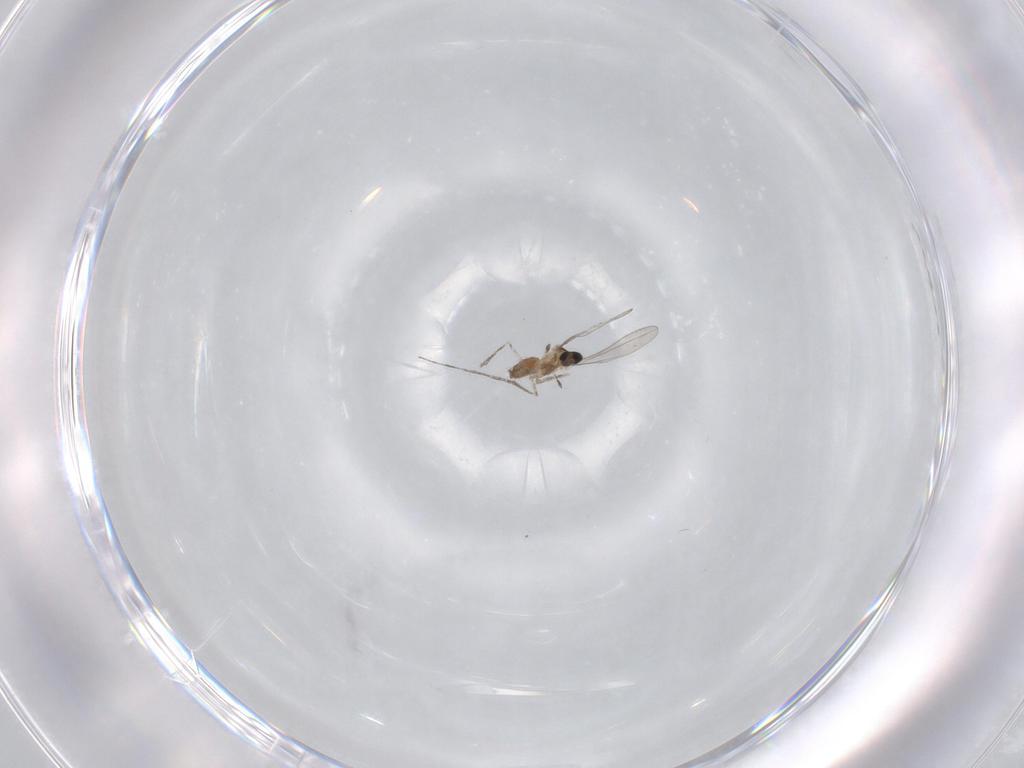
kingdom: Animalia
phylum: Arthropoda
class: Insecta
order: Diptera
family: Cecidomyiidae
